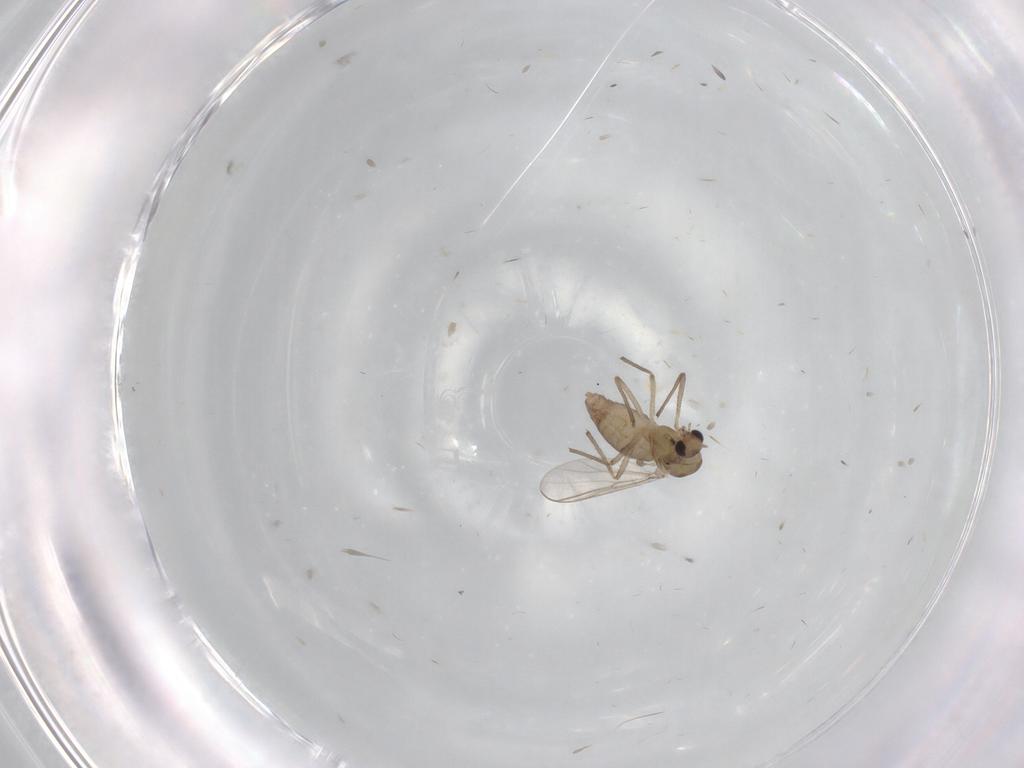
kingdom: Animalia
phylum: Arthropoda
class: Insecta
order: Diptera
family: Chironomidae
